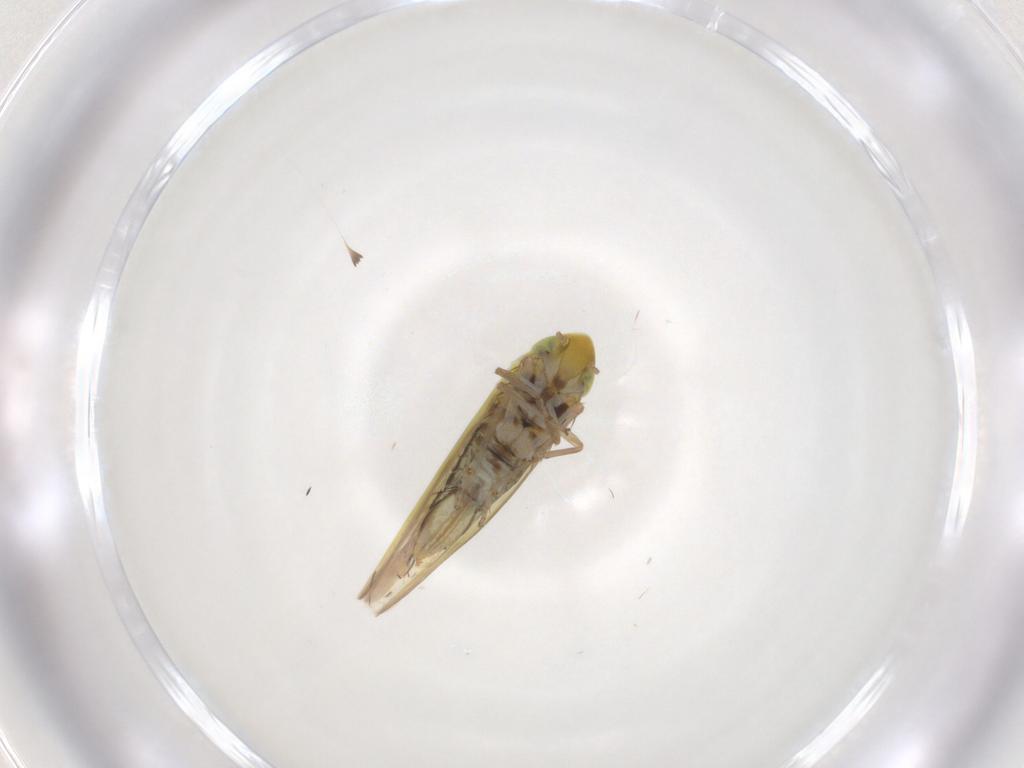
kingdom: Animalia
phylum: Arthropoda
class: Insecta
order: Hemiptera
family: Cicadellidae
